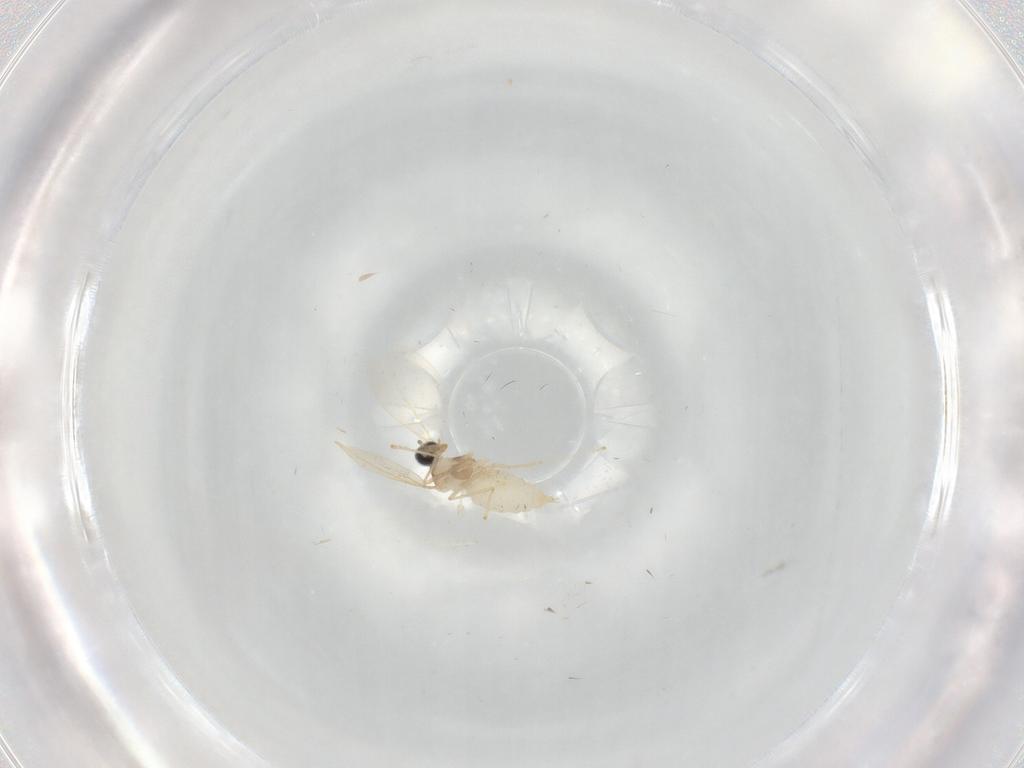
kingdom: Animalia
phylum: Arthropoda
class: Insecta
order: Diptera
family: Cecidomyiidae
